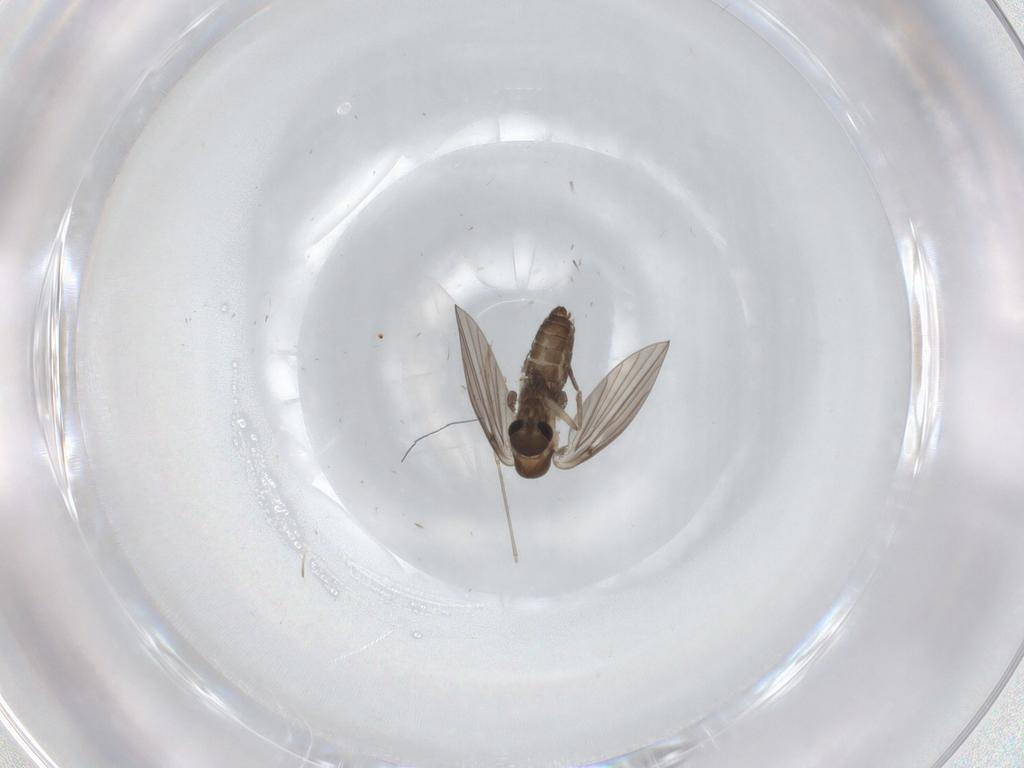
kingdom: Animalia
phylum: Arthropoda
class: Insecta
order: Diptera
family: Psychodidae
